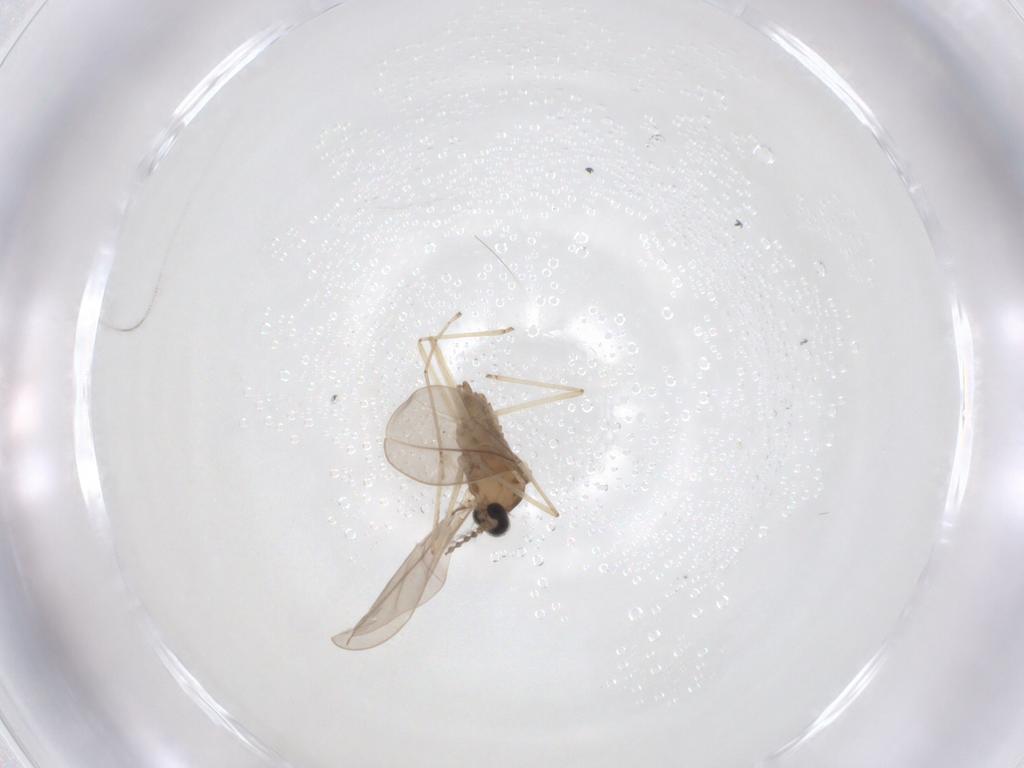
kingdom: Animalia
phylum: Arthropoda
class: Insecta
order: Diptera
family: Cecidomyiidae
